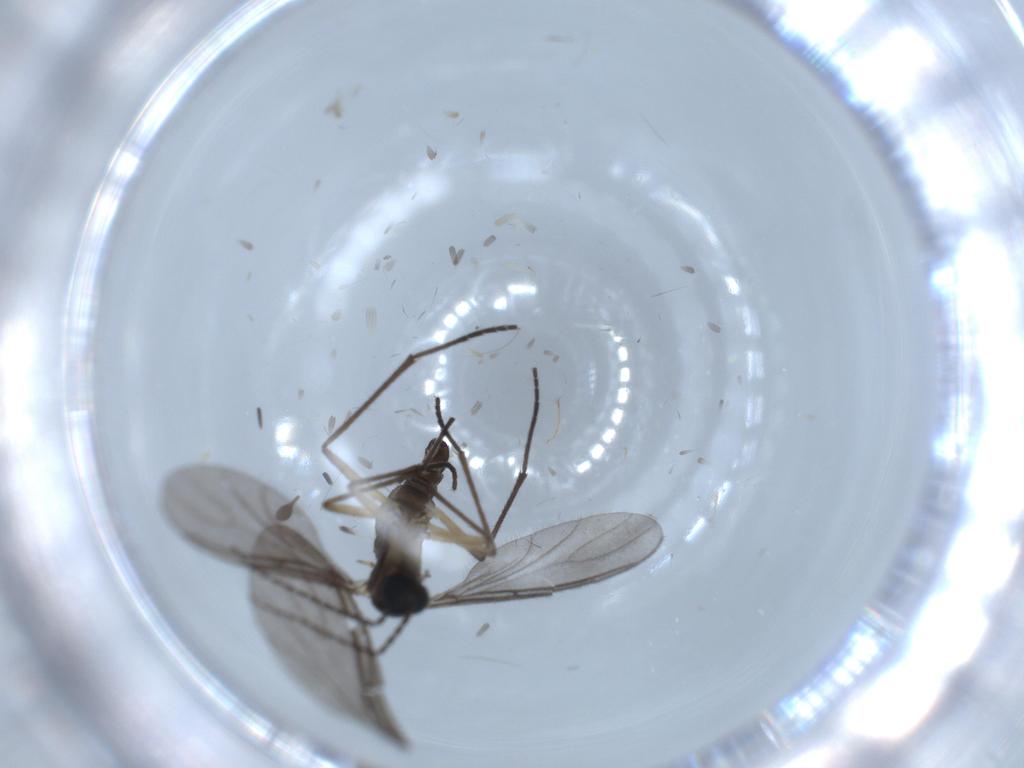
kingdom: Animalia
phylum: Arthropoda
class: Insecta
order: Diptera
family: Sciaridae
